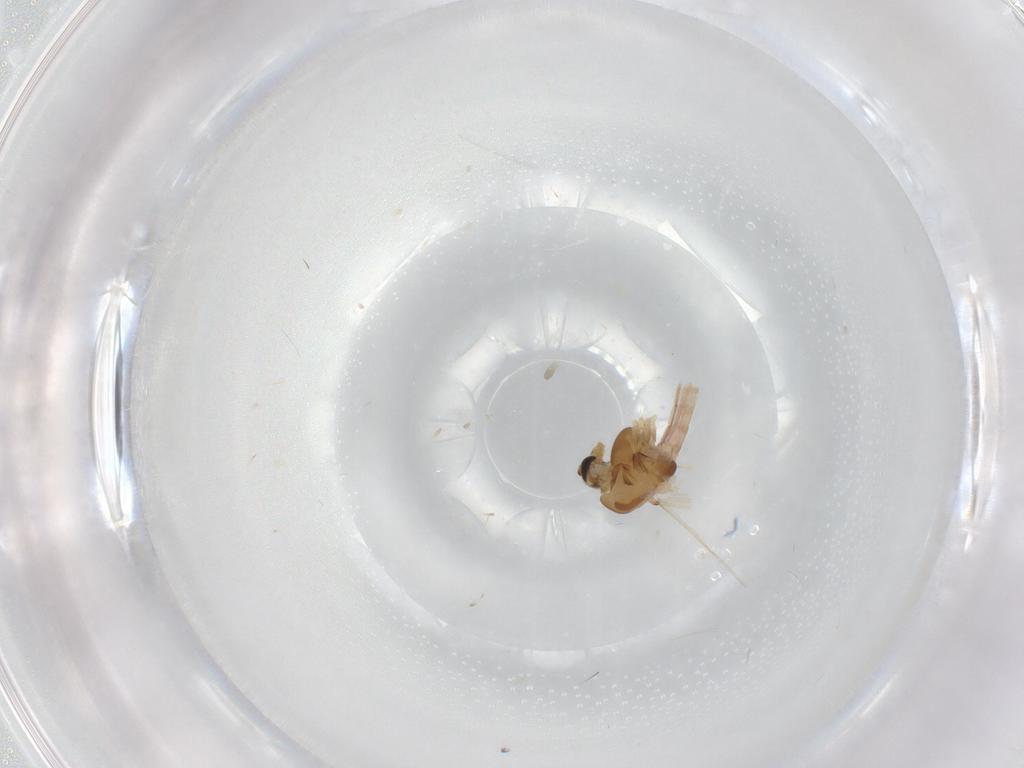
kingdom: Animalia
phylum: Arthropoda
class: Insecta
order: Diptera
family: Chironomidae
